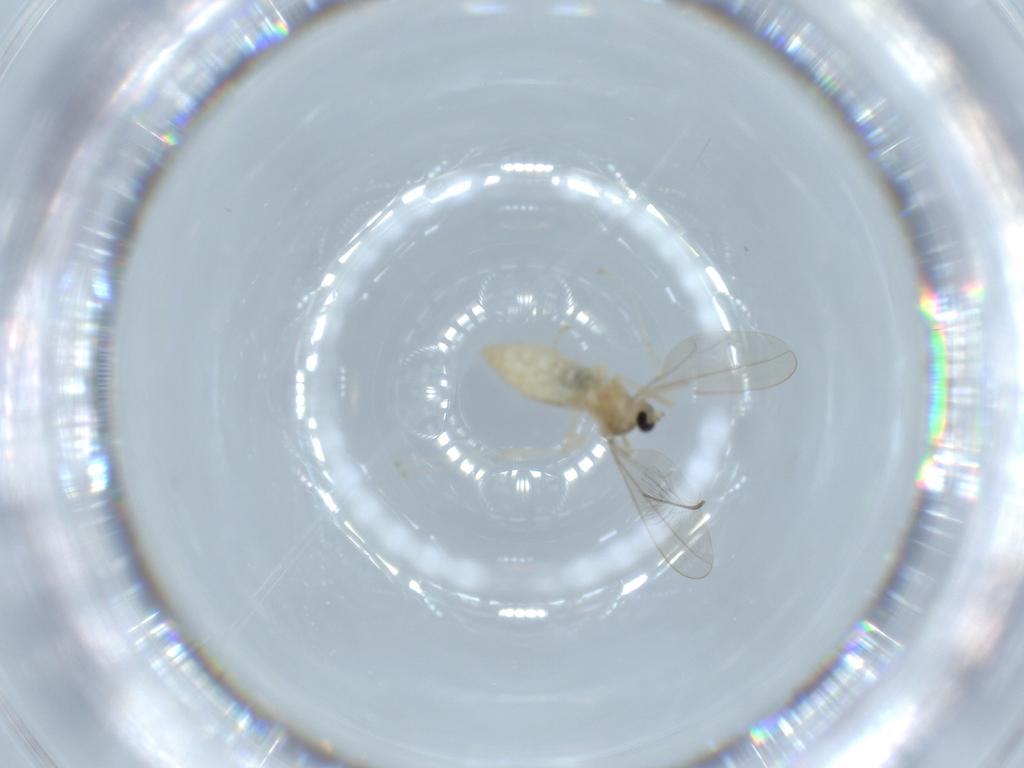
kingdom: Animalia
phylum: Arthropoda
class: Insecta
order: Diptera
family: Cecidomyiidae
